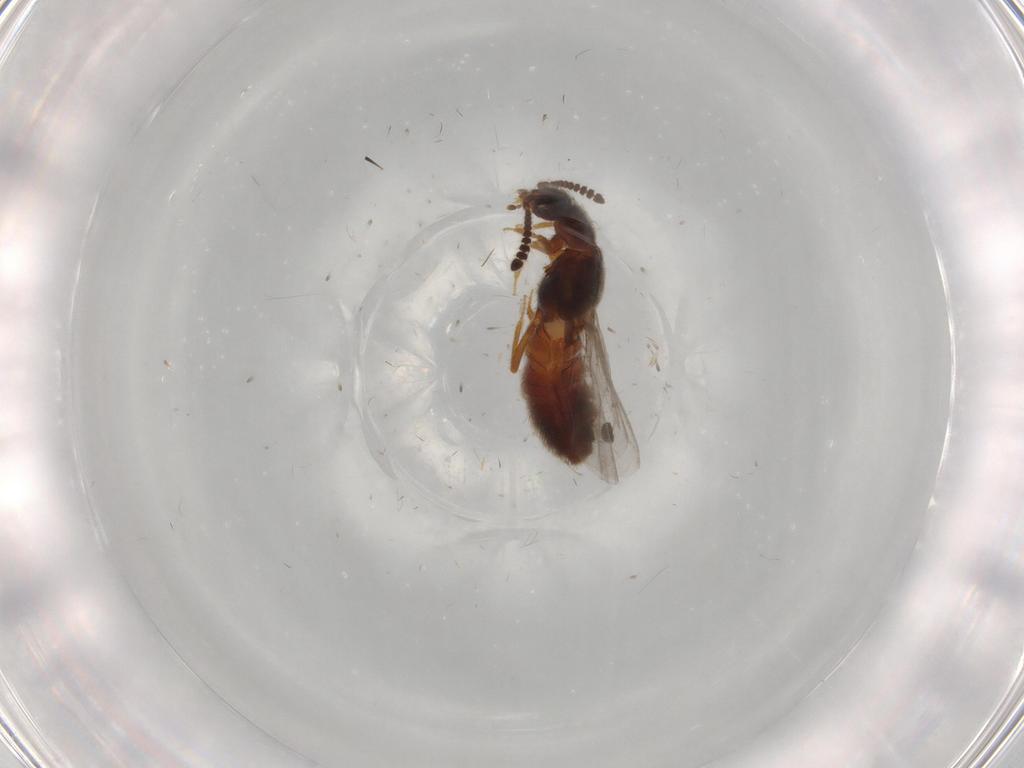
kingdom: Animalia
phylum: Arthropoda
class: Insecta
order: Coleoptera
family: Staphylinidae
